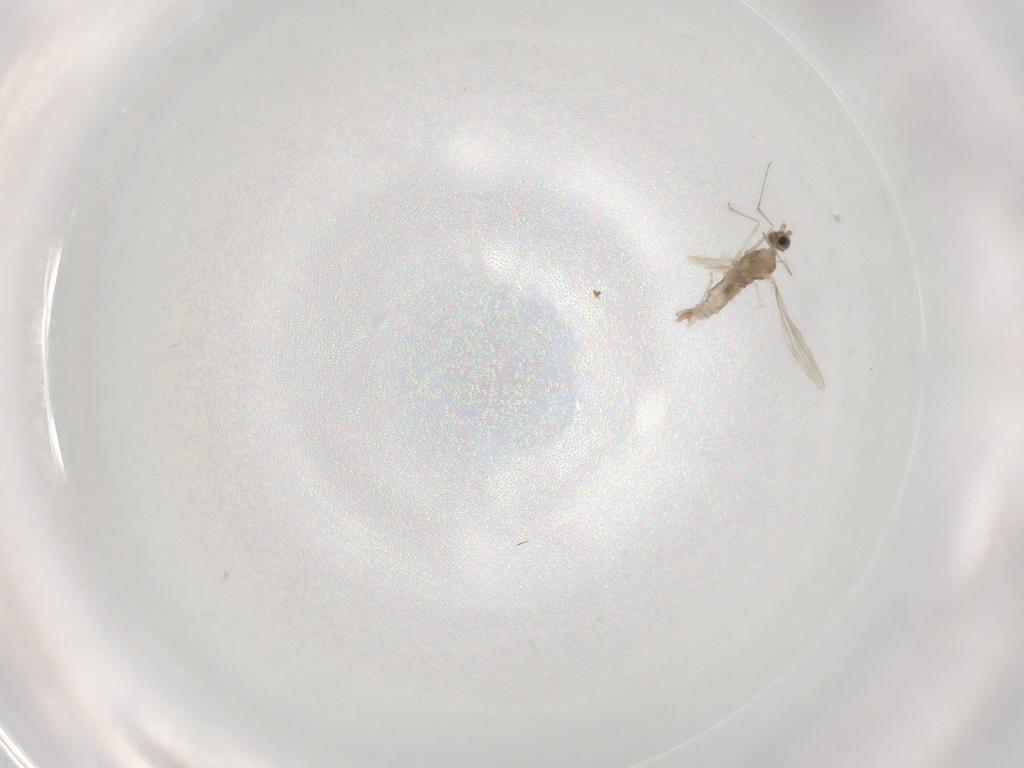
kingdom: Animalia
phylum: Arthropoda
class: Insecta
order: Diptera
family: Cecidomyiidae
